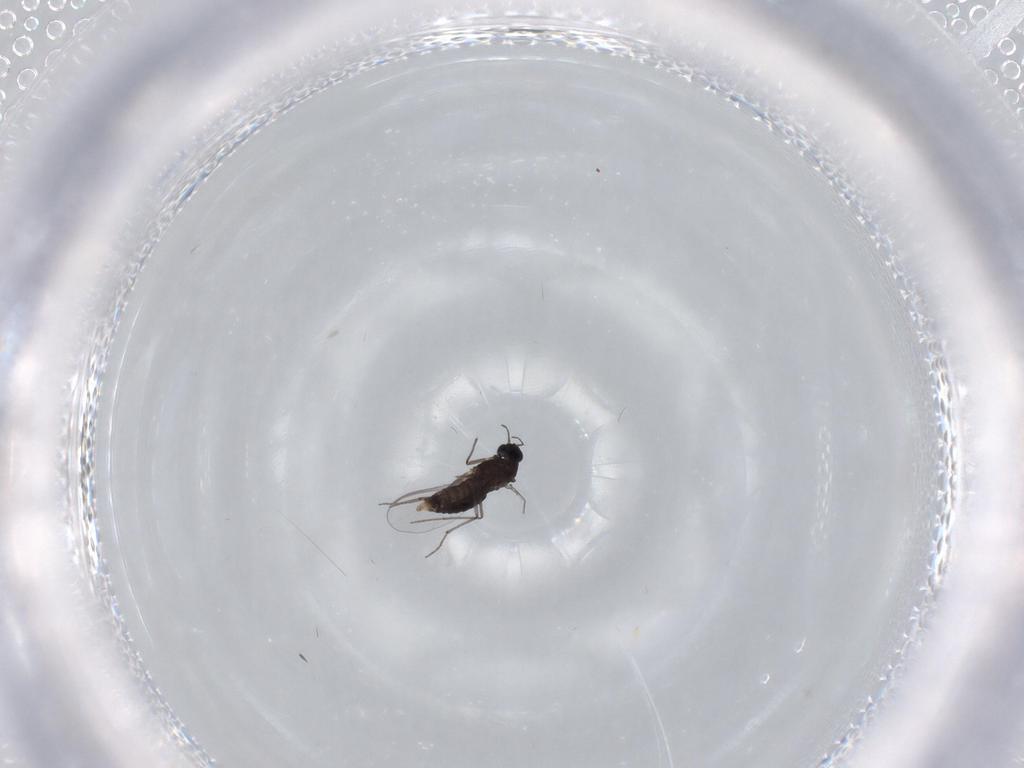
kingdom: Animalia
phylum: Arthropoda
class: Insecta
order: Diptera
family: Chironomidae
